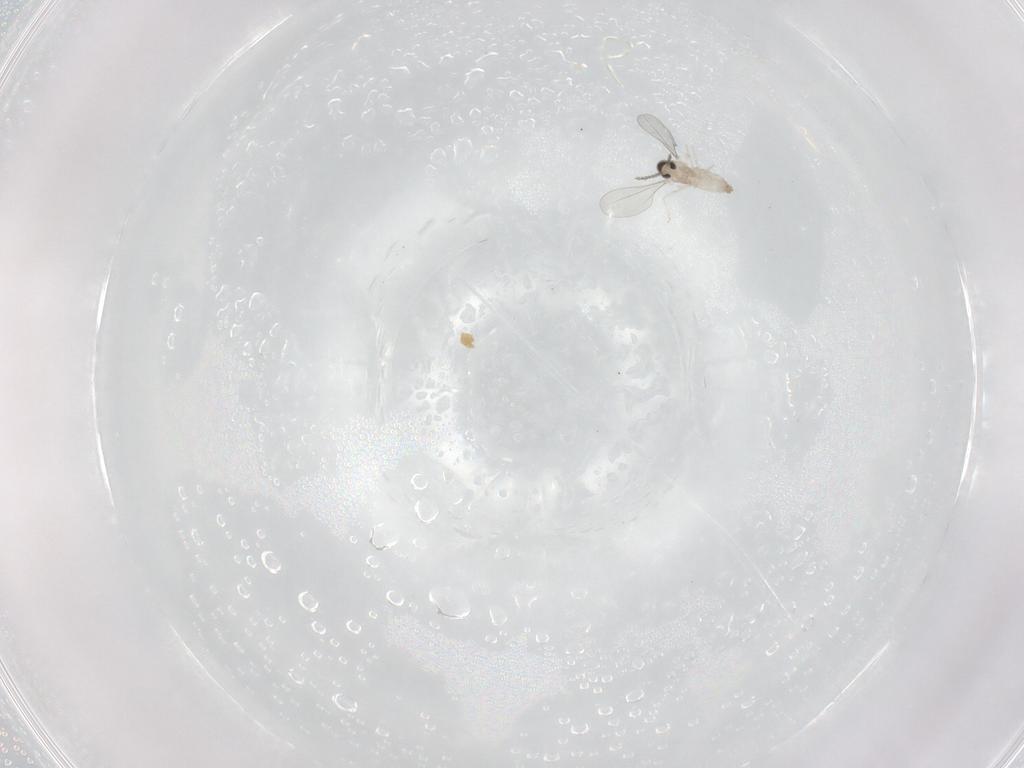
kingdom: Animalia
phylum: Arthropoda
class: Insecta
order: Diptera
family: Cecidomyiidae
